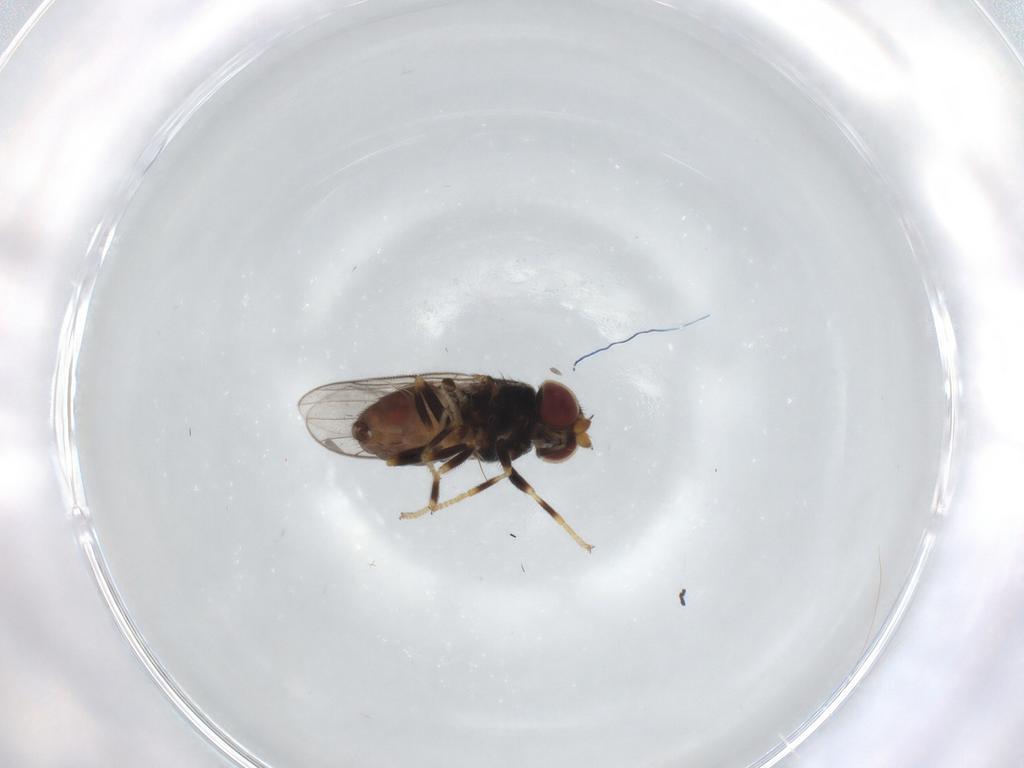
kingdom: Animalia
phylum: Arthropoda
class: Insecta
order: Diptera
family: Chloropidae
